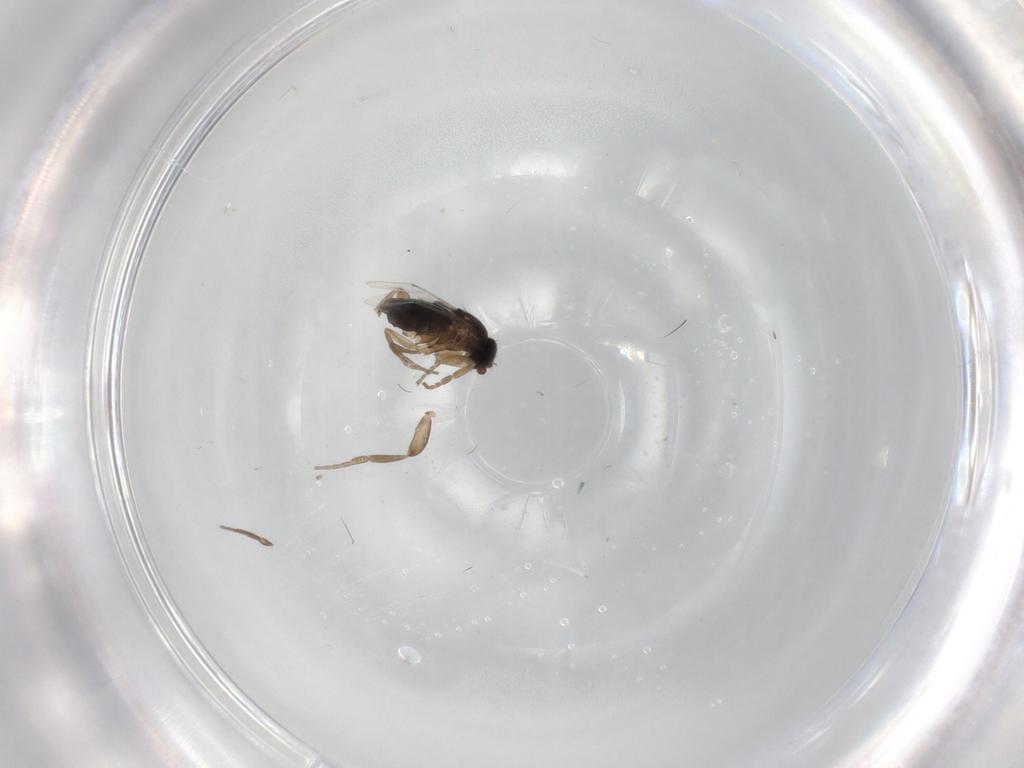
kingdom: Animalia
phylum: Arthropoda
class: Insecta
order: Diptera
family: Phoridae
